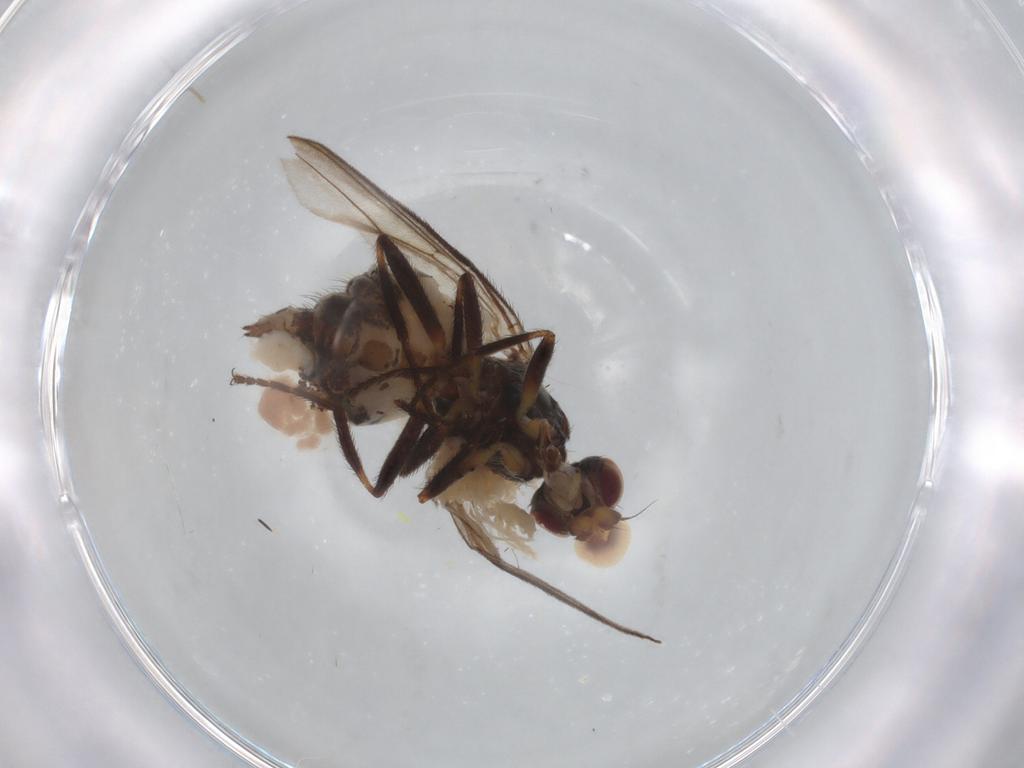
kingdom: Animalia
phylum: Arthropoda
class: Insecta
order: Diptera
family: Chloropidae
